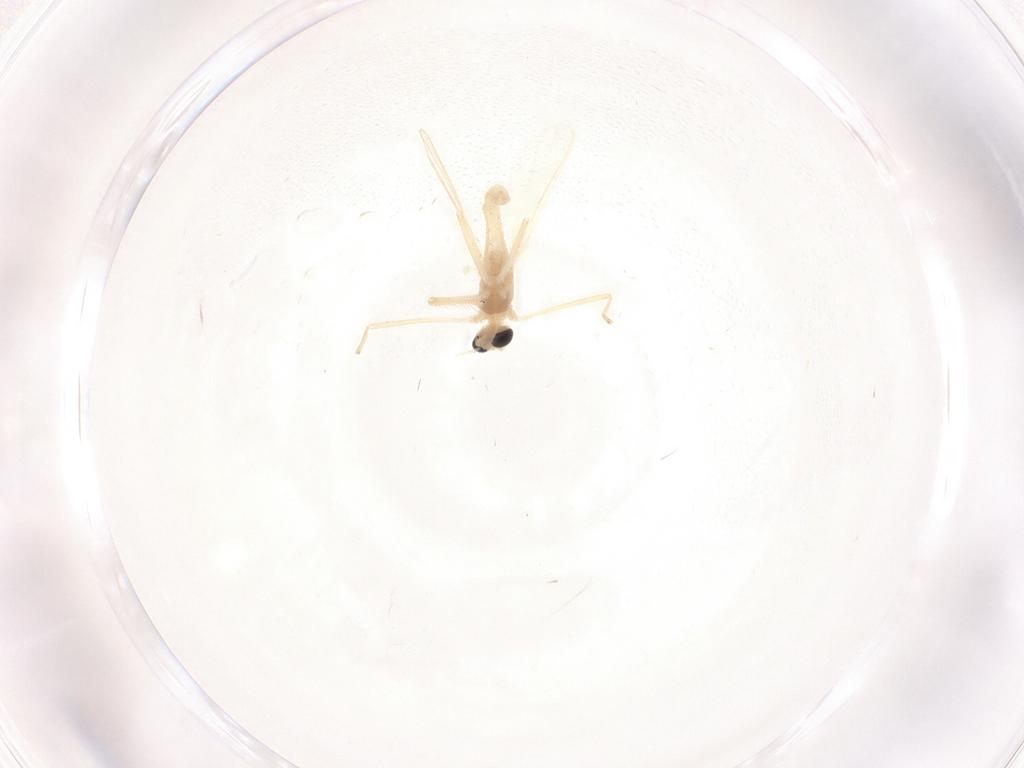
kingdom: Animalia
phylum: Arthropoda
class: Insecta
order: Diptera
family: Chironomidae
